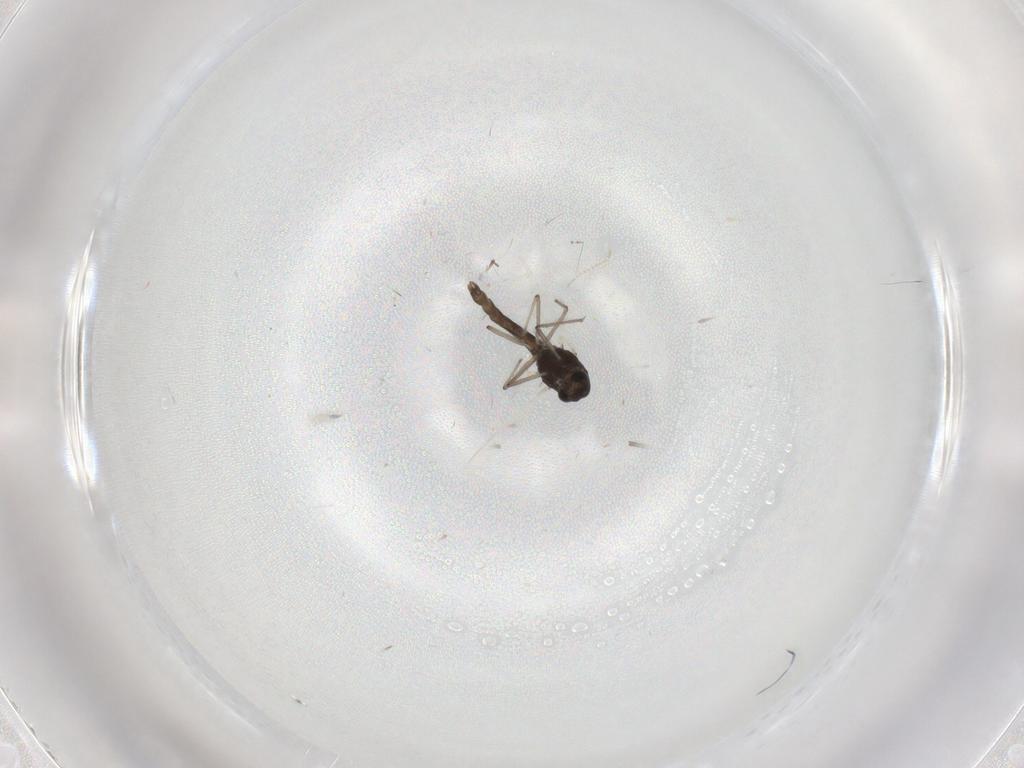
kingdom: Animalia
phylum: Arthropoda
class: Insecta
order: Diptera
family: Chironomidae
